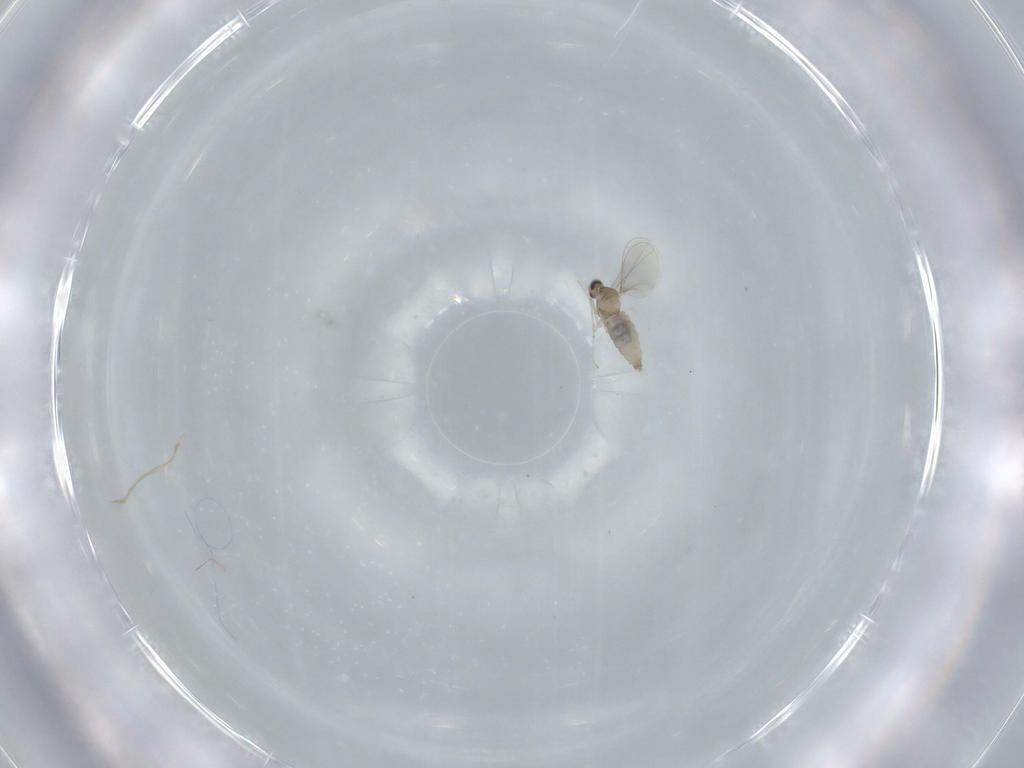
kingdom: Animalia
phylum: Arthropoda
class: Insecta
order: Diptera
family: Cecidomyiidae
